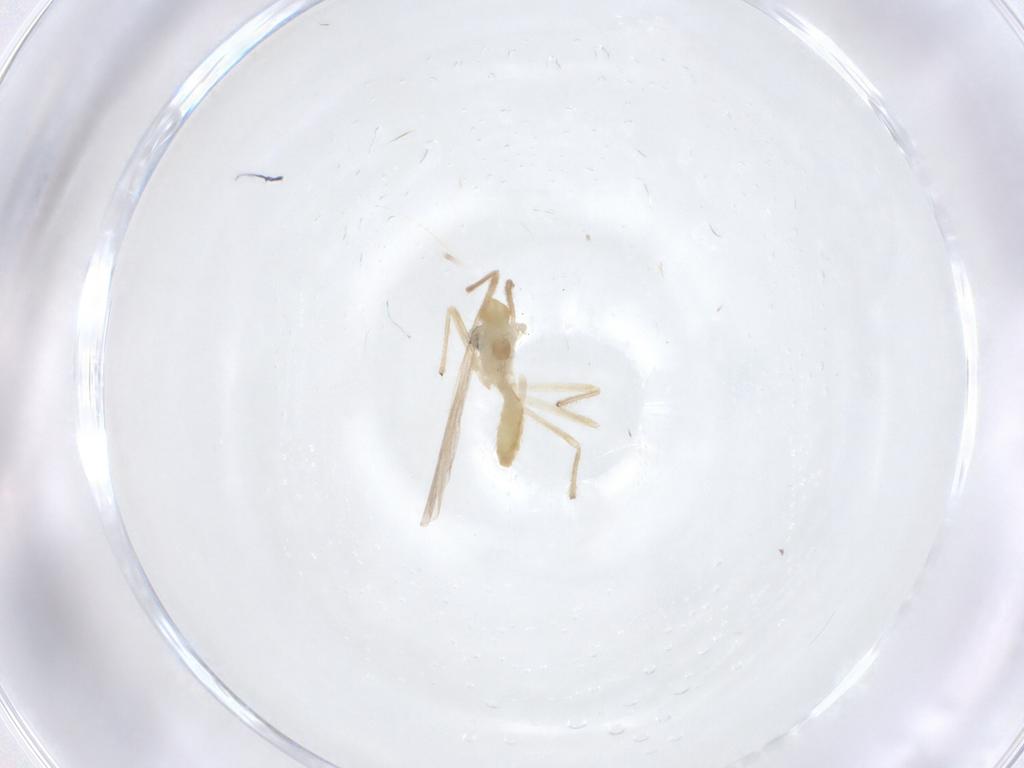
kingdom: Animalia
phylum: Arthropoda
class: Insecta
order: Diptera
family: Chironomidae
